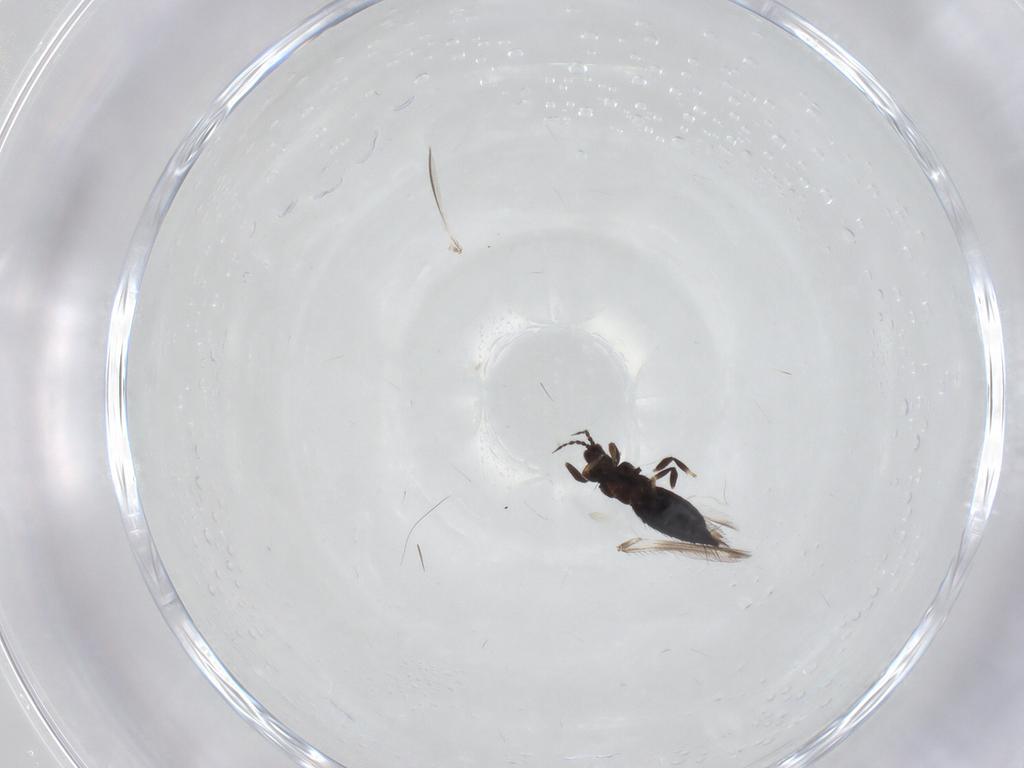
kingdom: Animalia
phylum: Arthropoda
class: Insecta
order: Thysanoptera
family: Thripidae
